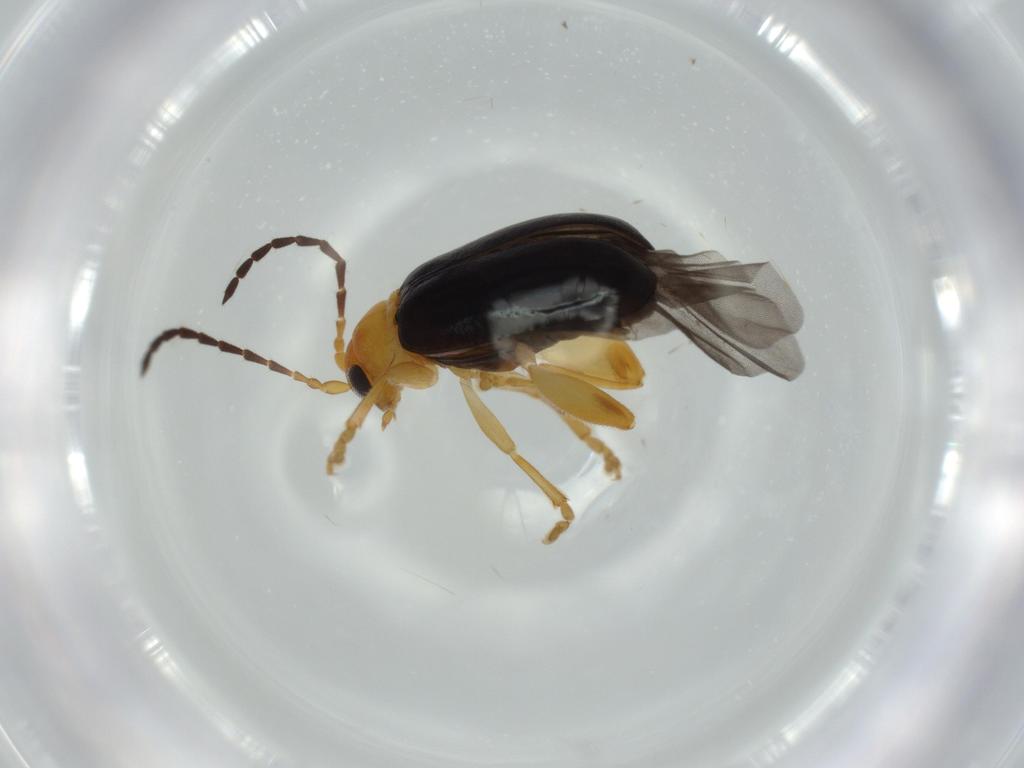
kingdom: Animalia
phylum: Arthropoda
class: Insecta
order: Coleoptera
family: Chrysomelidae
